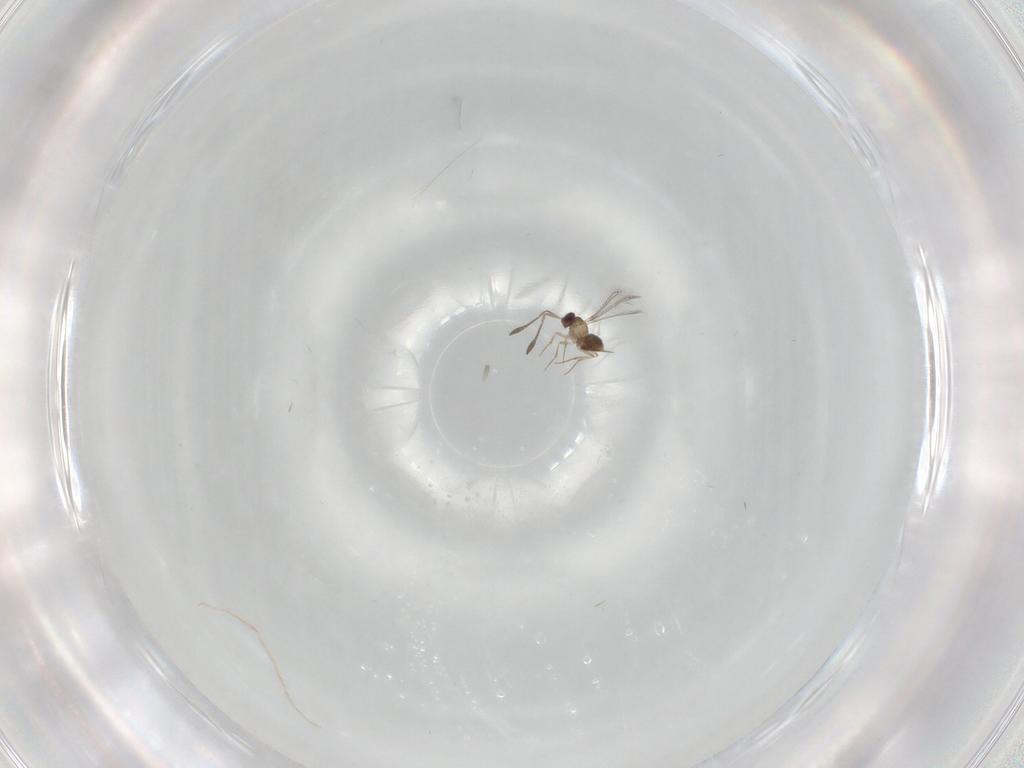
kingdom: Animalia
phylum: Arthropoda
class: Insecta
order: Hymenoptera
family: Mymaridae
